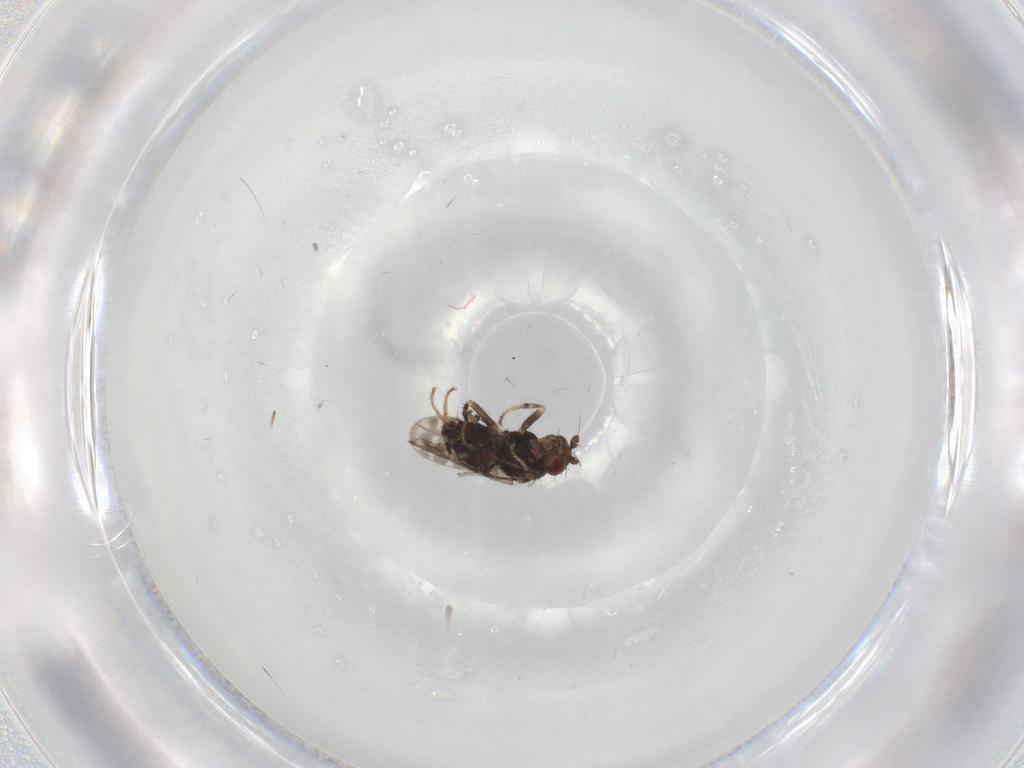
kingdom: Animalia
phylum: Arthropoda
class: Insecta
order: Diptera
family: Sphaeroceridae
